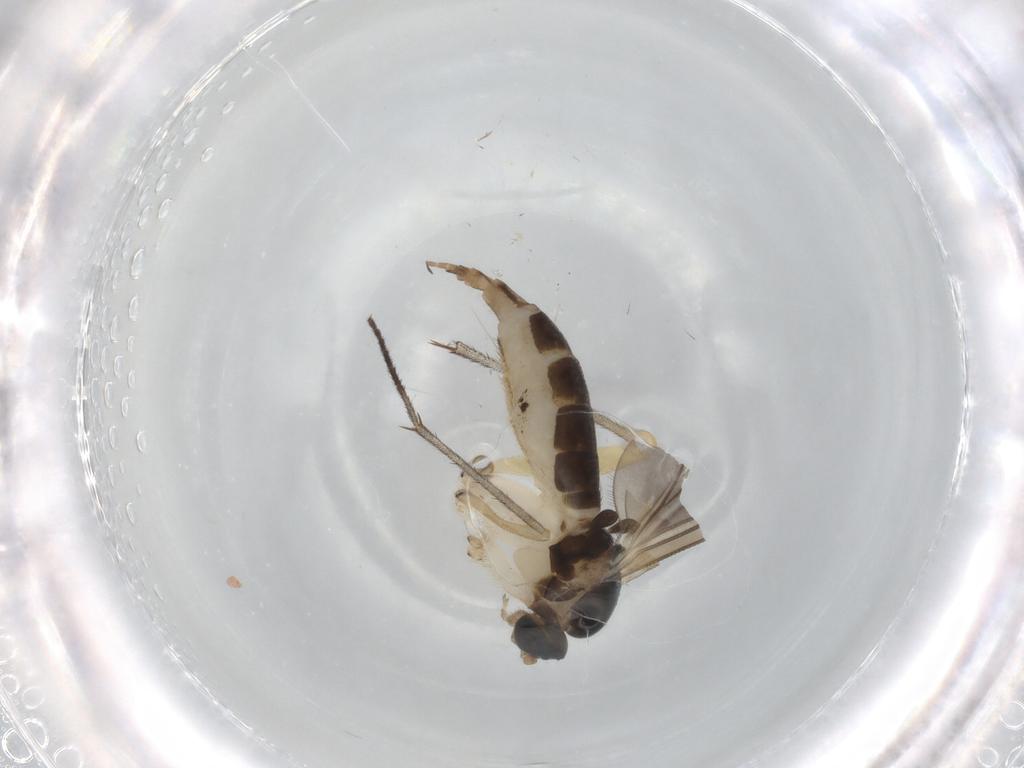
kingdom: Animalia
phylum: Arthropoda
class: Insecta
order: Diptera
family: Sciaridae
